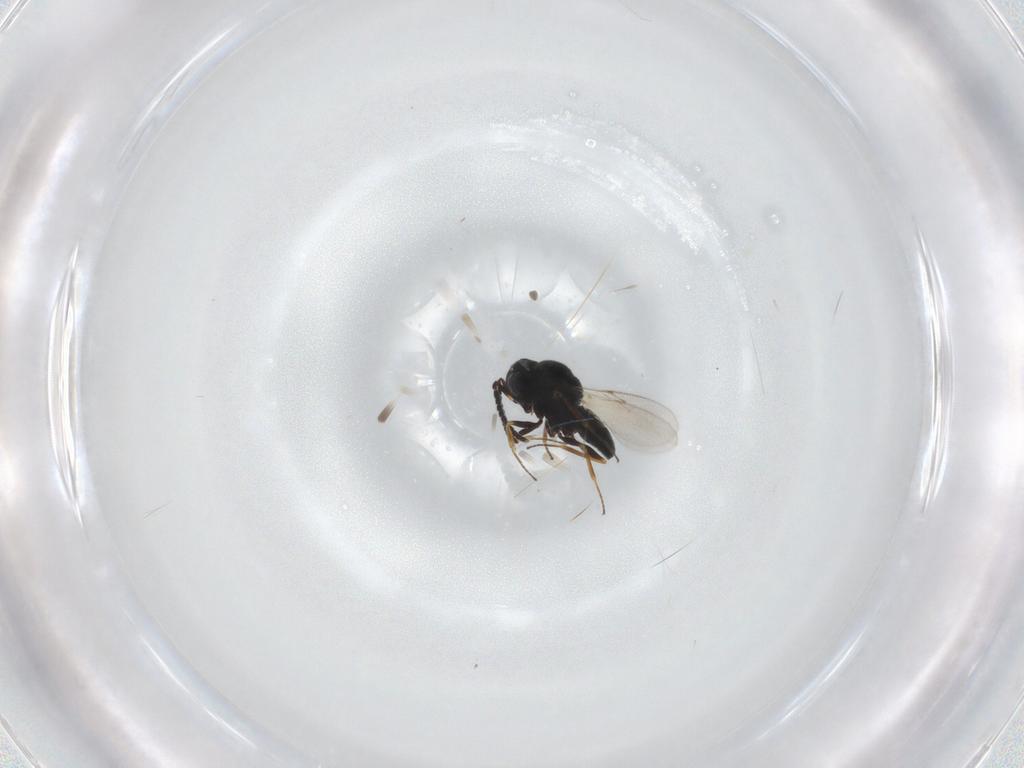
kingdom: Animalia
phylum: Arthropoda
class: Insecta
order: Hymenoptera
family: Scelionidae
